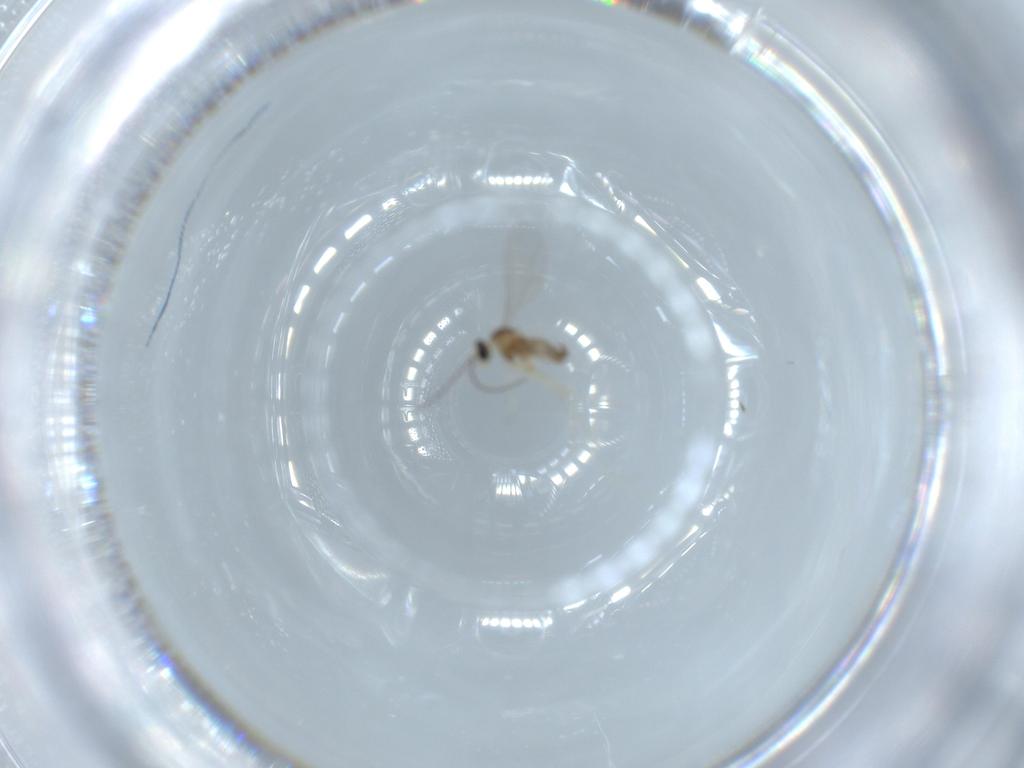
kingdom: Animalia
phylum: Arthropoda
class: Insecta
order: Diptera
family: Cecidomyiidae
